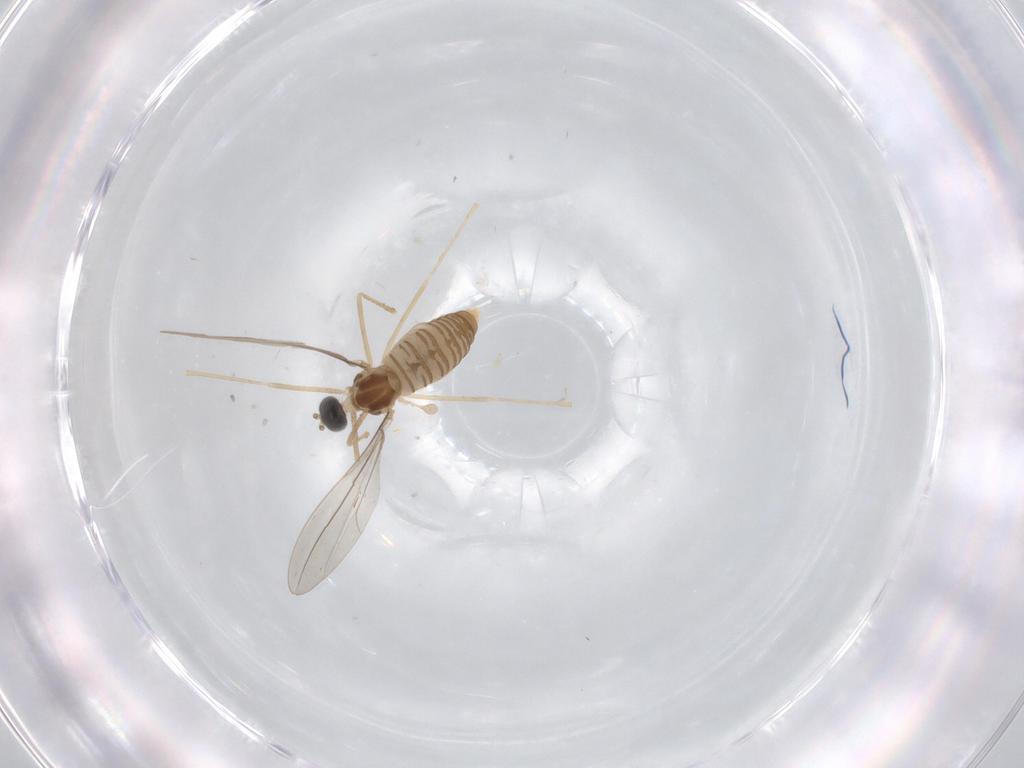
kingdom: Animalia
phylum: Arthropoda
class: Insecta
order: Diptera
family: Cecidomyiidae
